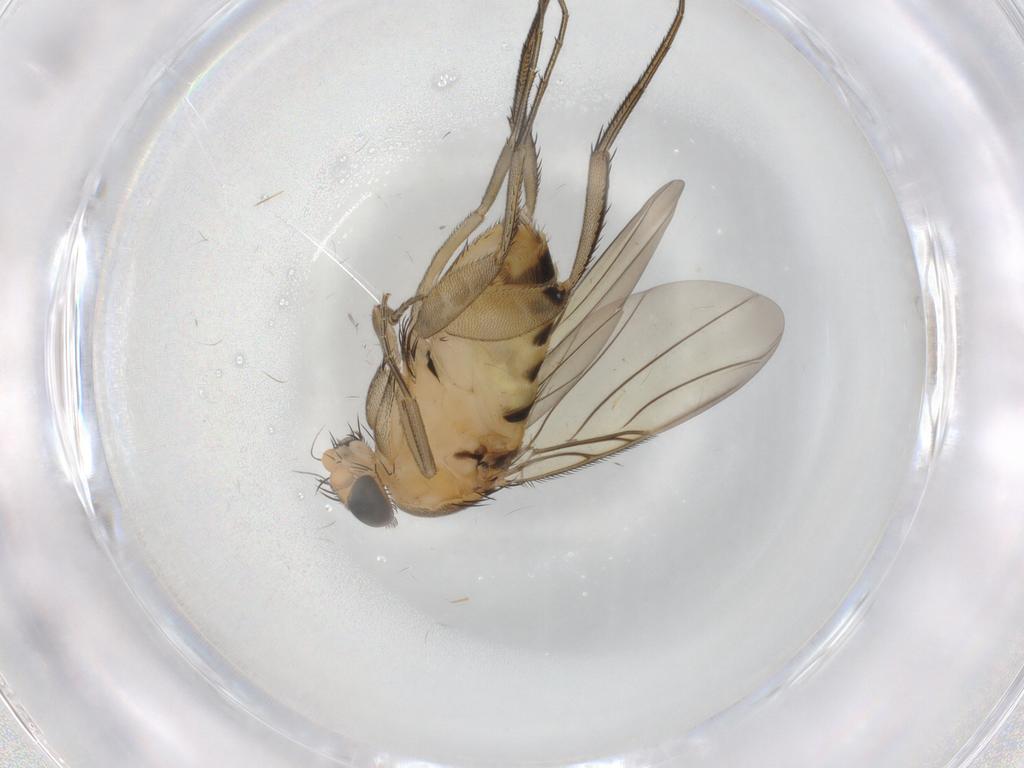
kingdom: Animalia
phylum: Arthropoda
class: Insecta
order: Diptera
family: Sciaridae
